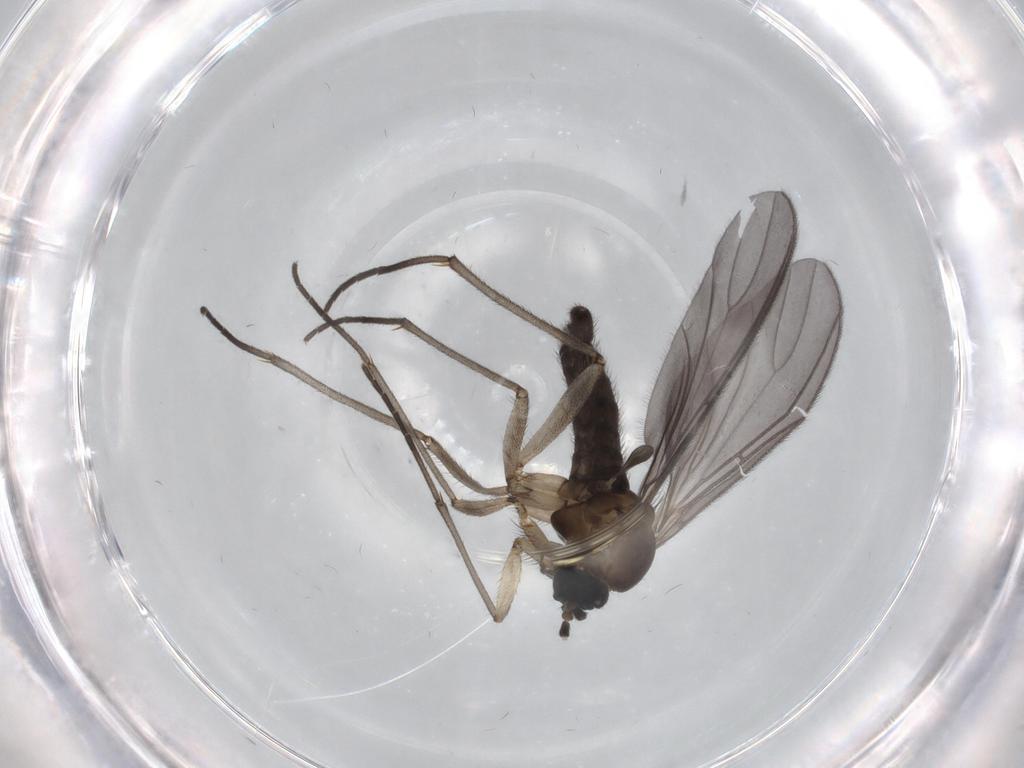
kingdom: Animalia
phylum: Arthropoda
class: Insecta
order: Diptera
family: Sciaridae
